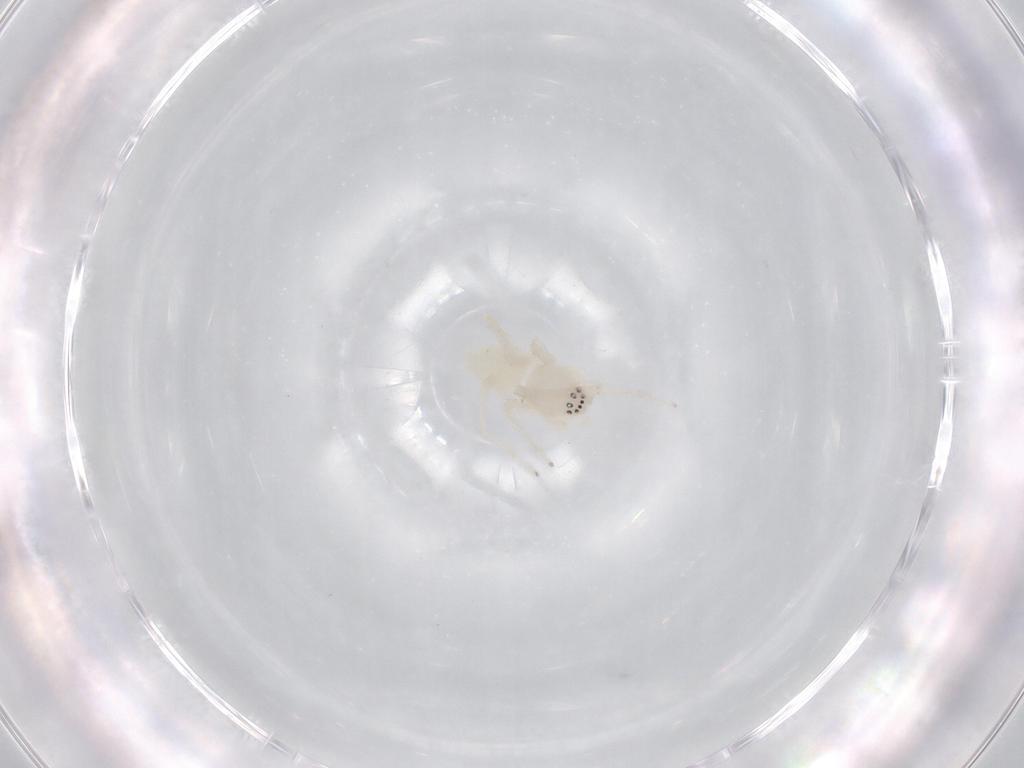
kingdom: Animalia
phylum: Arthropoda
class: Arachnida
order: Araneae
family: Anyphaenidae
